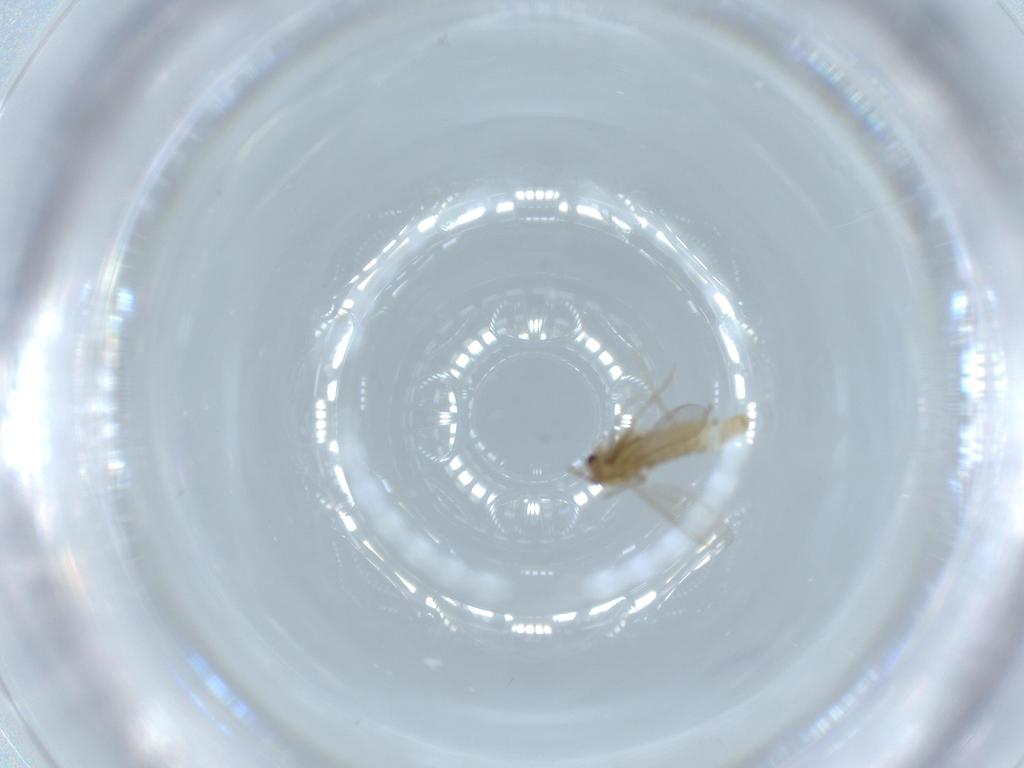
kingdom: Animalia
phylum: Arthropoda
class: Insecta
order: Diptera
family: Chironomidae
